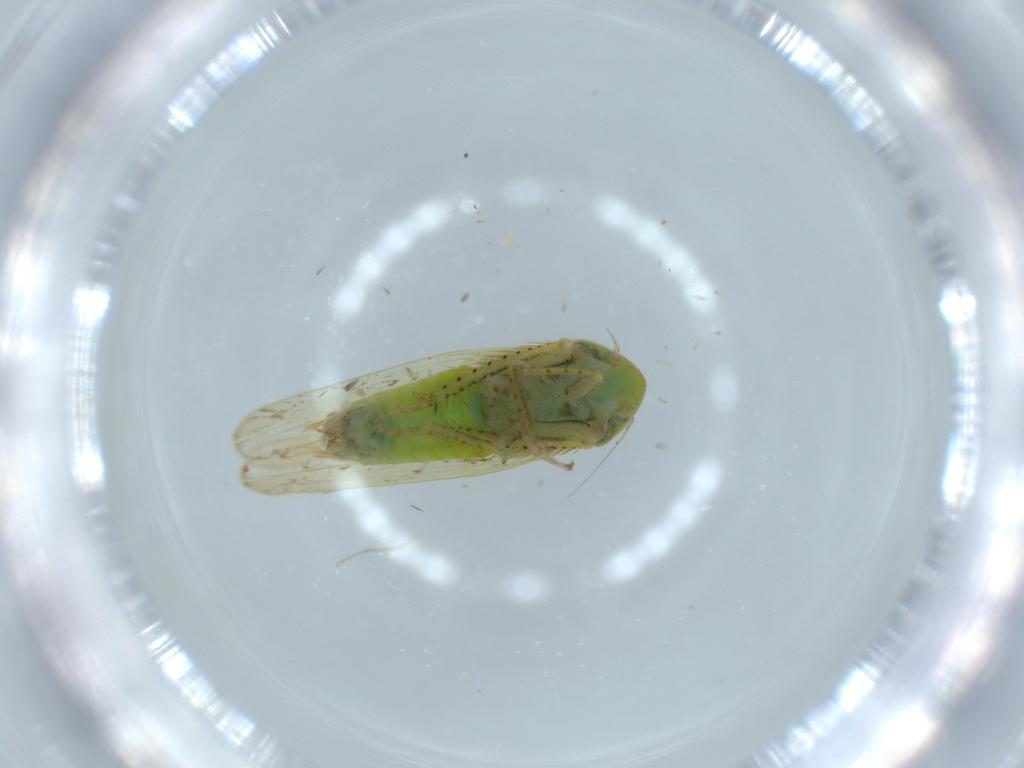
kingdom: Animalia
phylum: Arthropoda
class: Insecta
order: Hemiptera
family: Cicadellidae
